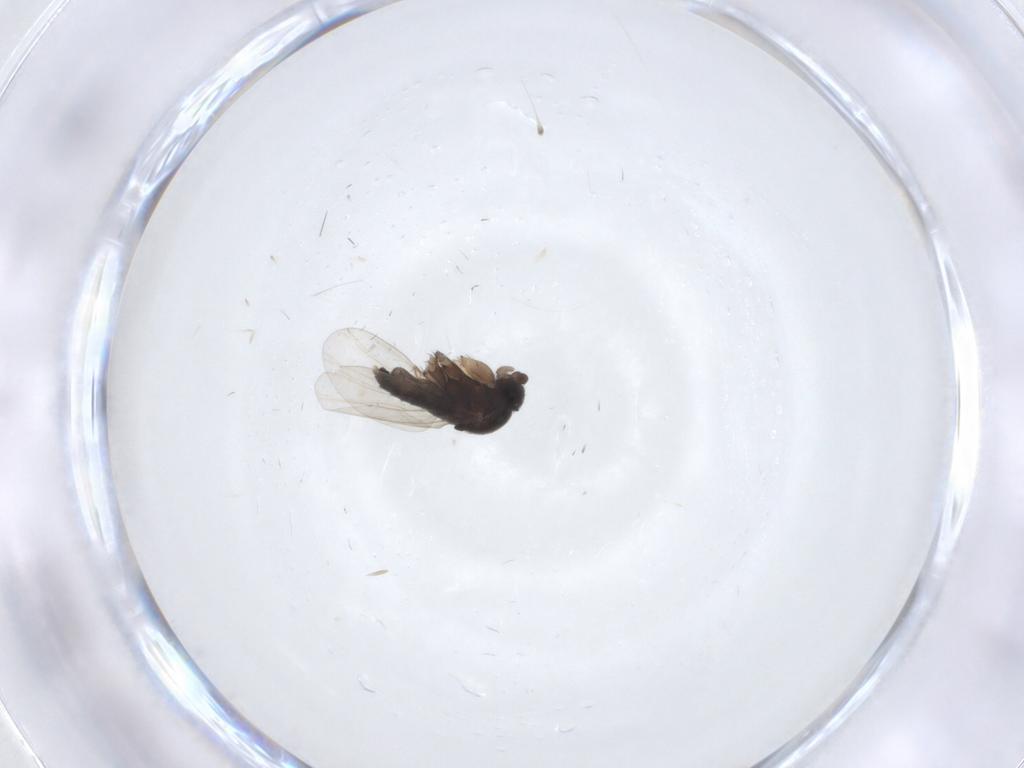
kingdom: Animalia
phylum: Arthropoda
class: Insecta
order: Diptera
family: Phoridae
